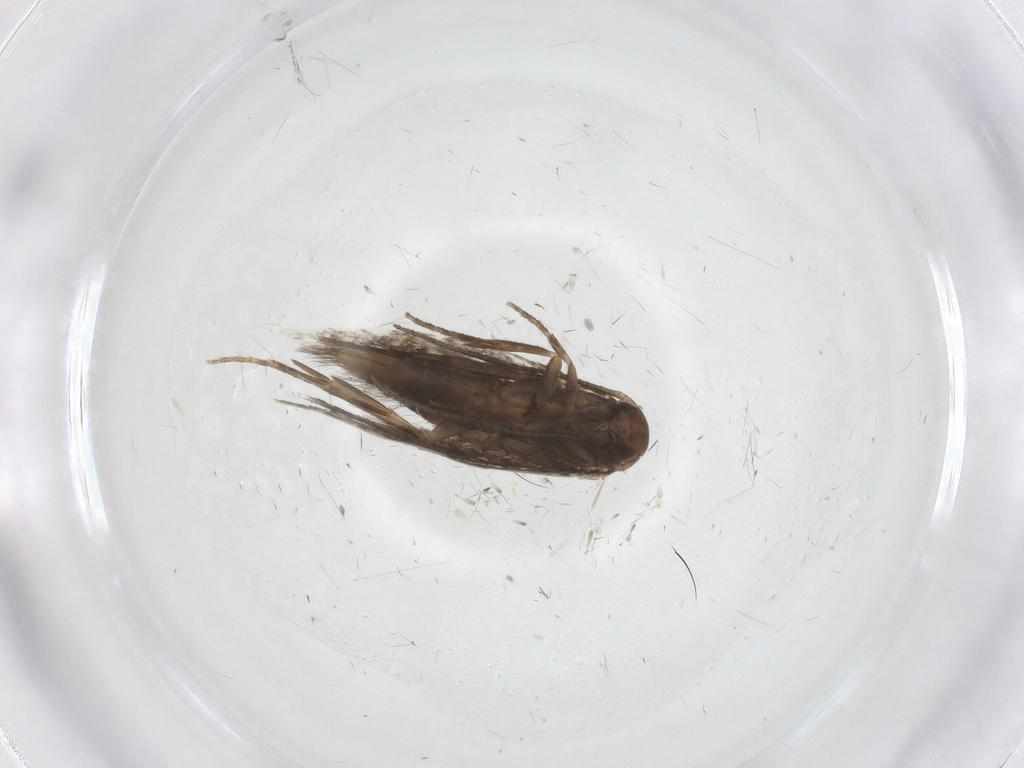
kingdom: Animalia
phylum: Arthropoda
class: Insecta
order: Lepidoptera
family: Elachistidae
